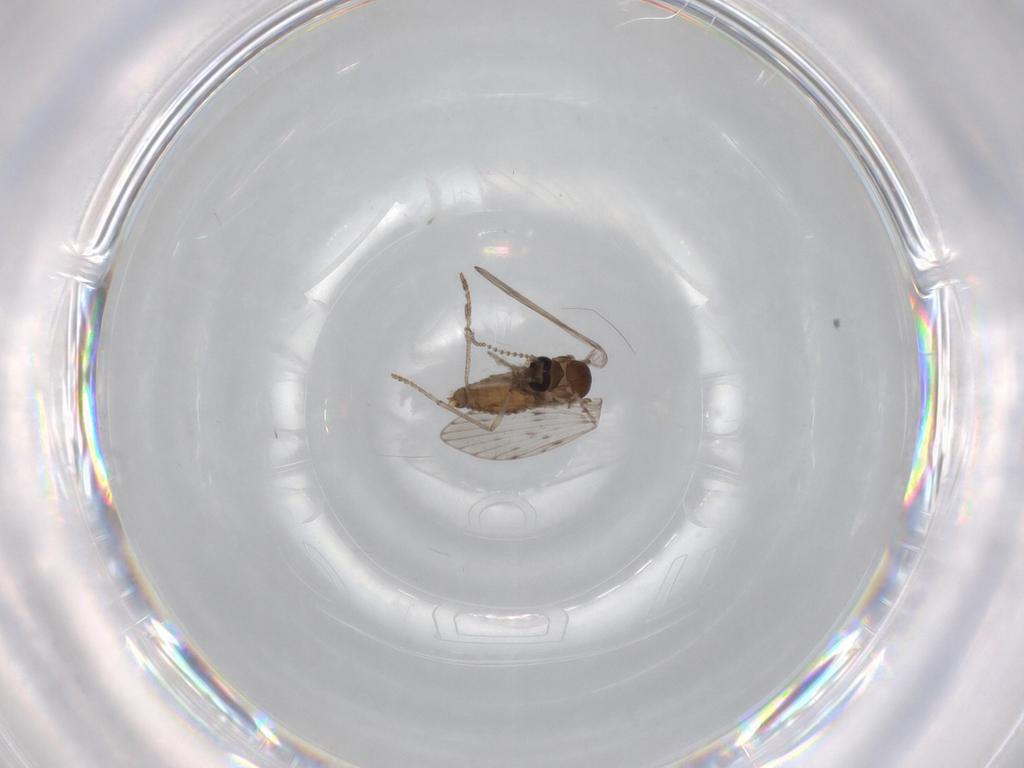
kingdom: Animalia
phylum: Arthropoda
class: Insecta
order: Diptera
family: Psychodidae
